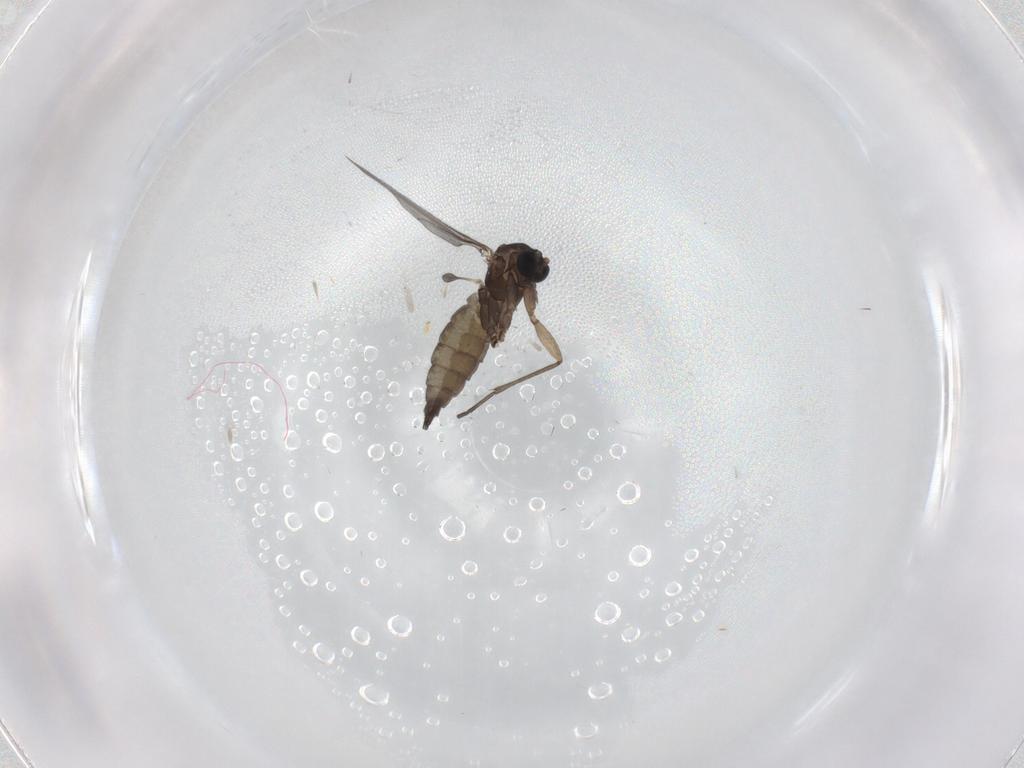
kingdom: Animalia
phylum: Arthropoda
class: Insecta
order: Diptera
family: Sciaridae
